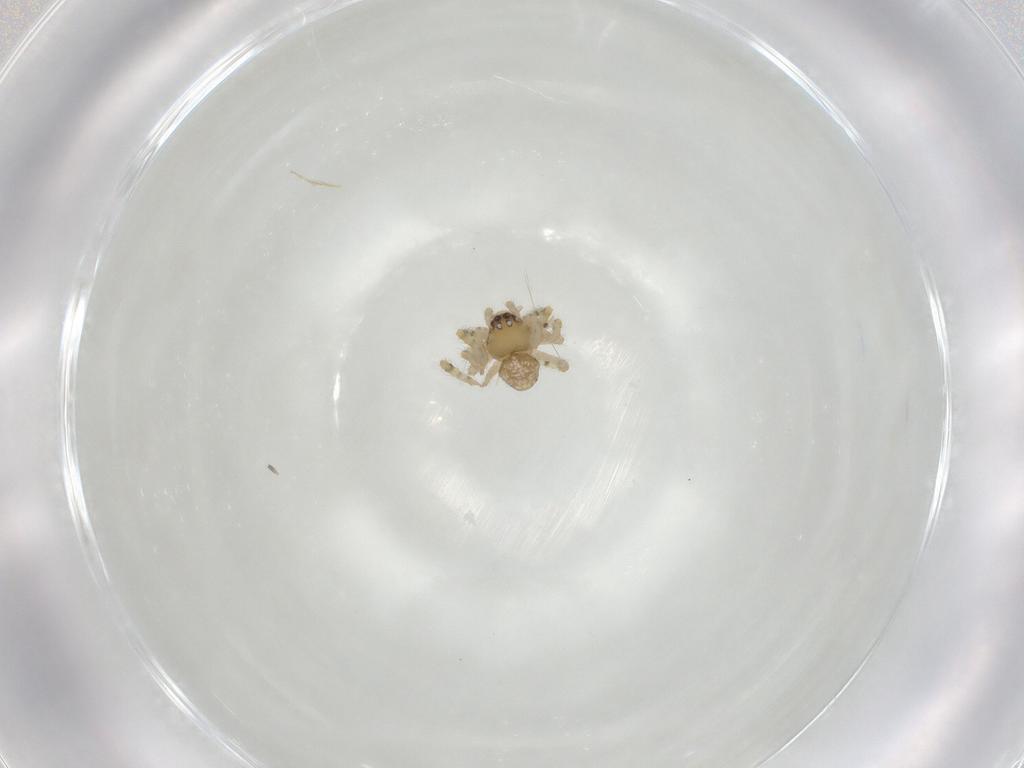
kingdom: Animalia
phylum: Arthropoda
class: Arachnida
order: Araneae
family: Theridiidae
